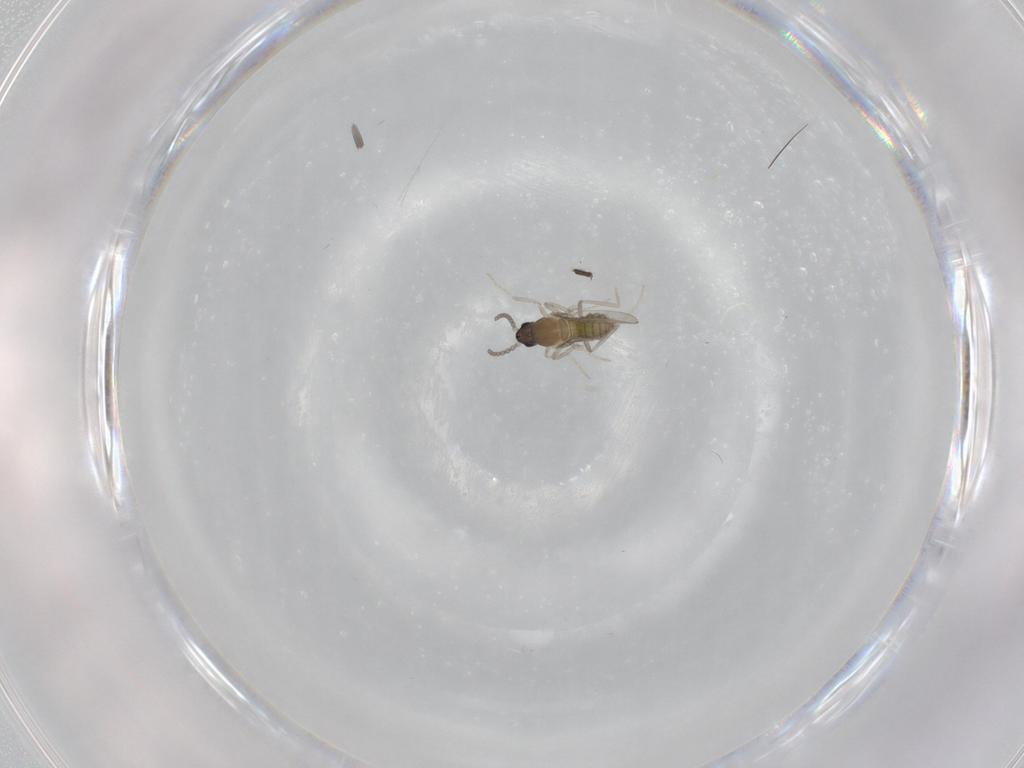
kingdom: Animalia
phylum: Arthropoda
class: Insecta
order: Diptera
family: Cecidomyiidae
